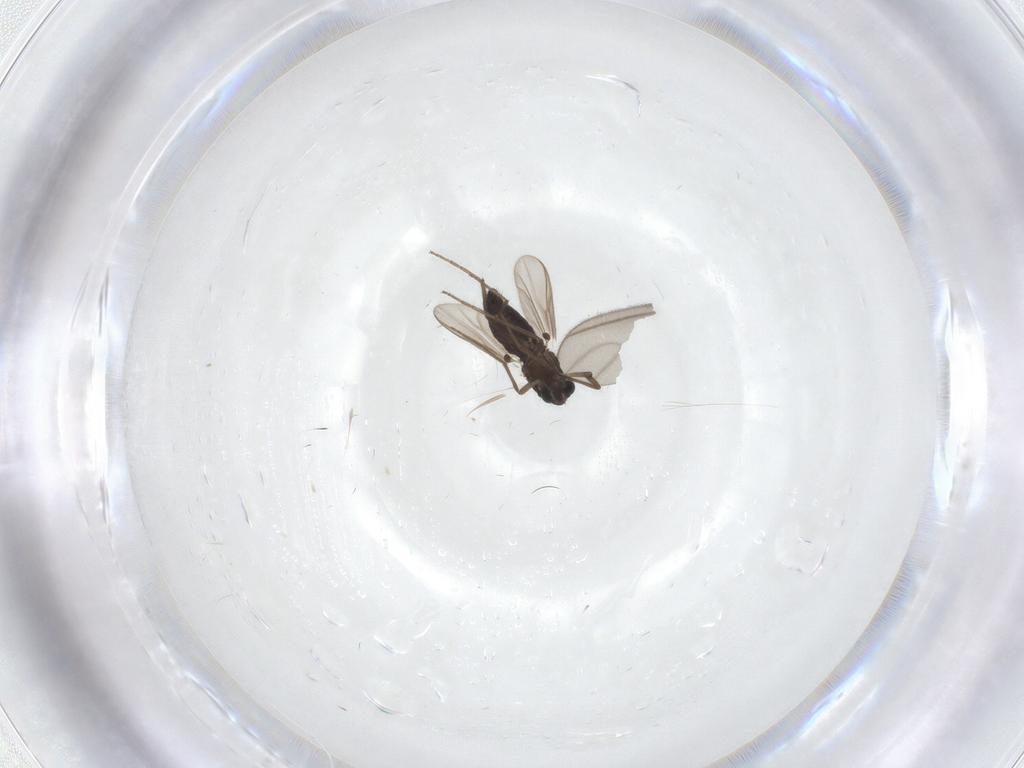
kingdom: Animalia
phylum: Arthropoda
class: Insecta
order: Diptera
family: Chironomidae
